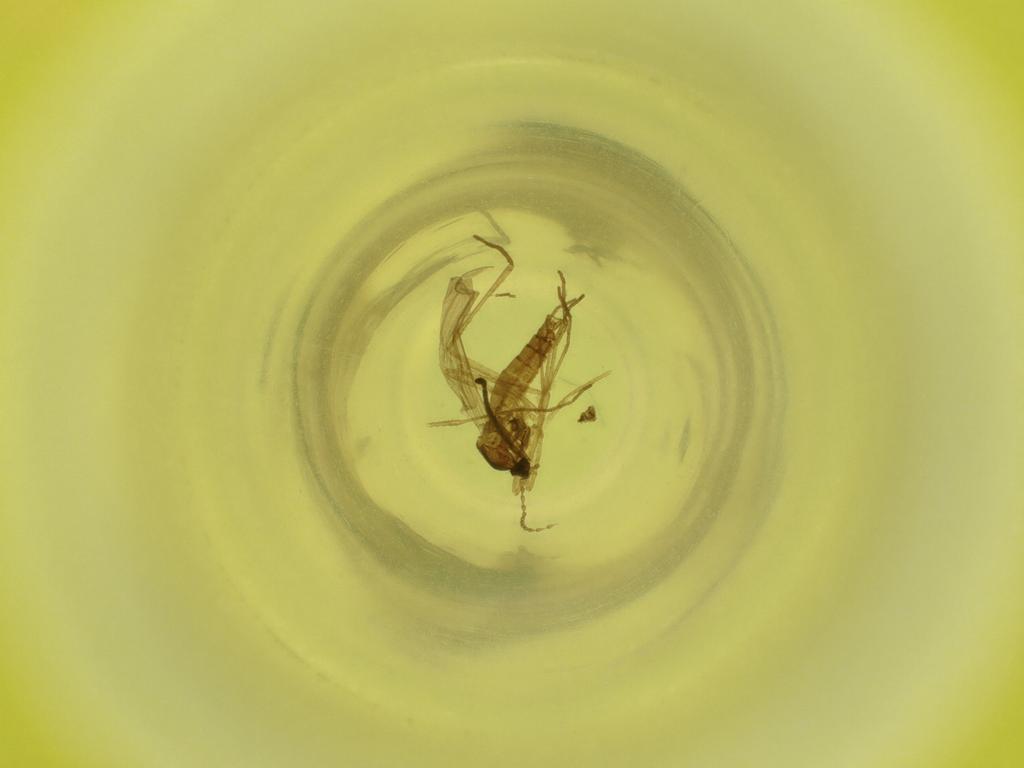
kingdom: Animalia
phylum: Arthropoda
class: Insecta
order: Diptera
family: Cecidomyiidae
